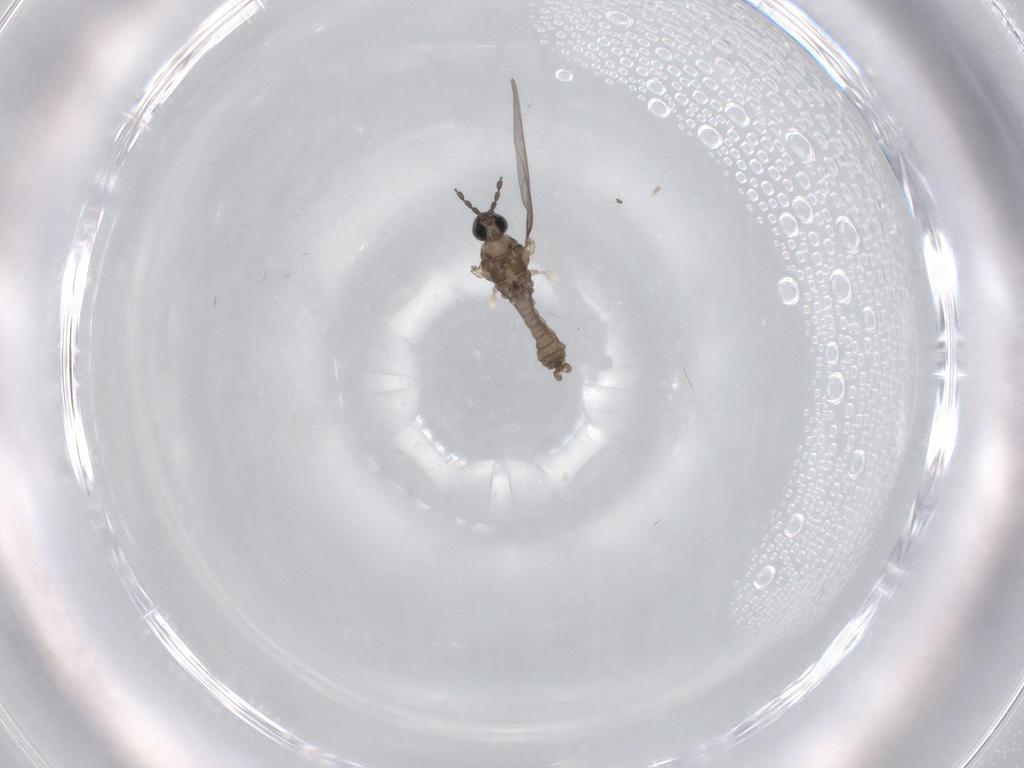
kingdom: Animalia
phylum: Arthropoda
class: Insecta
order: Diptera
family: Cecidomyiidae
